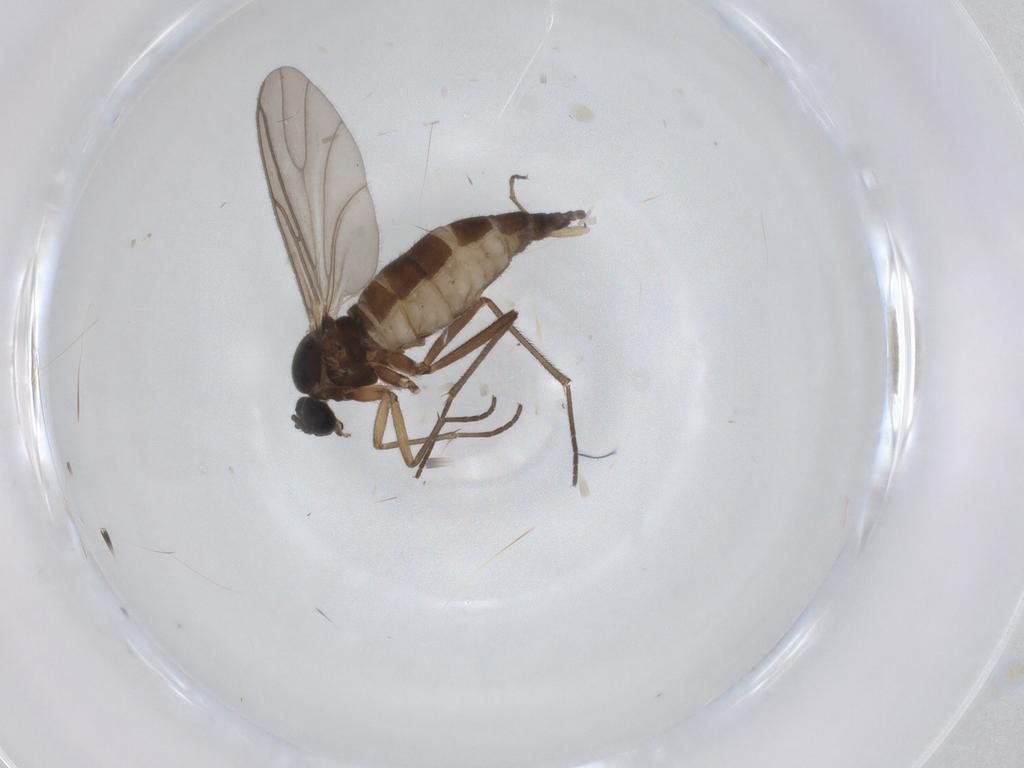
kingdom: Animalia
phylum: Arthropoda
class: Insecta
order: Diptera
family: Sciaridae
